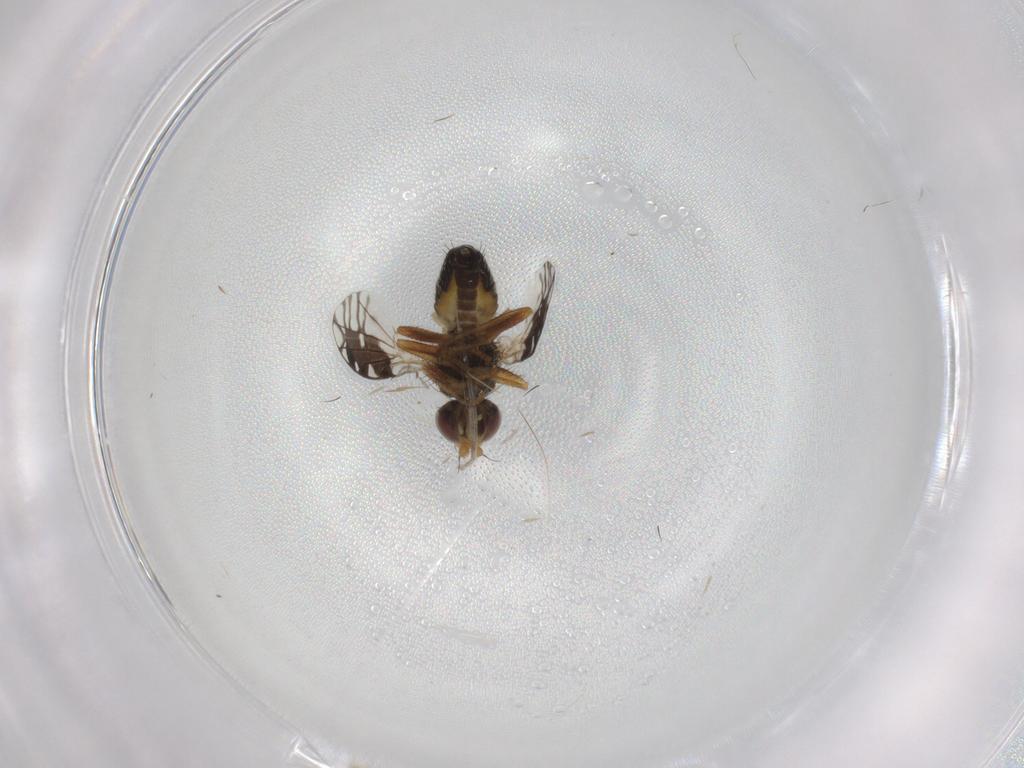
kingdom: Animalia
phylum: Arthropoda
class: Insecta
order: Diptera
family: Tephritidae
